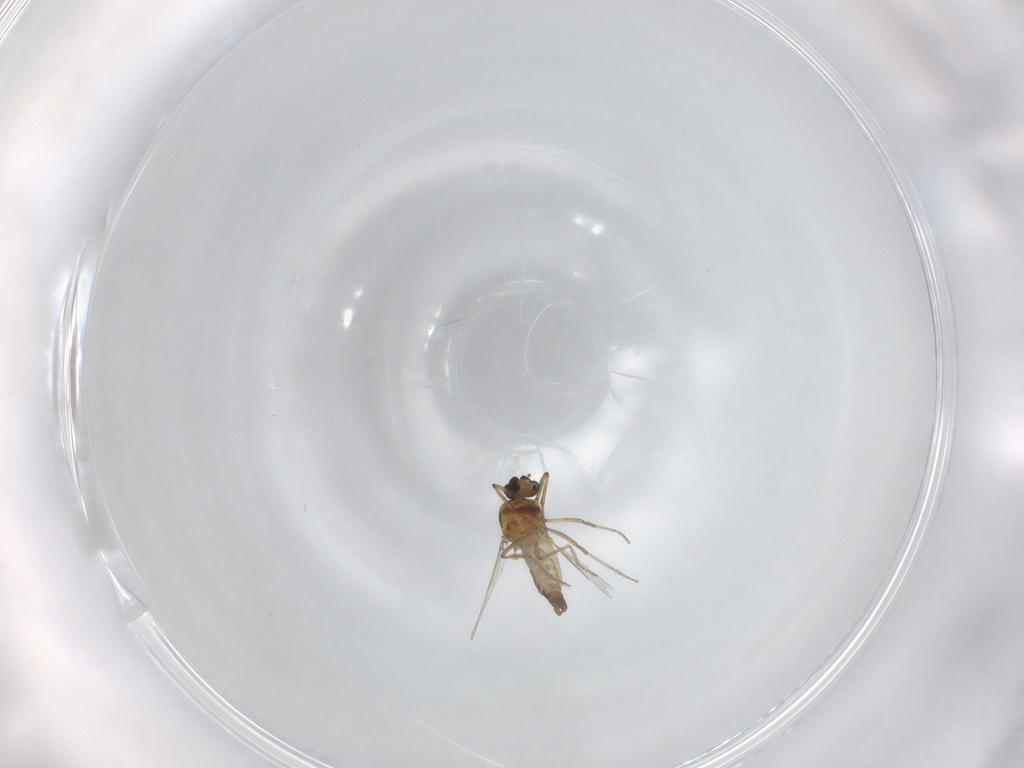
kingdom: Animalia
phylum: Arthropoda
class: Insecta
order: Diptera
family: Ceratopogonidae
